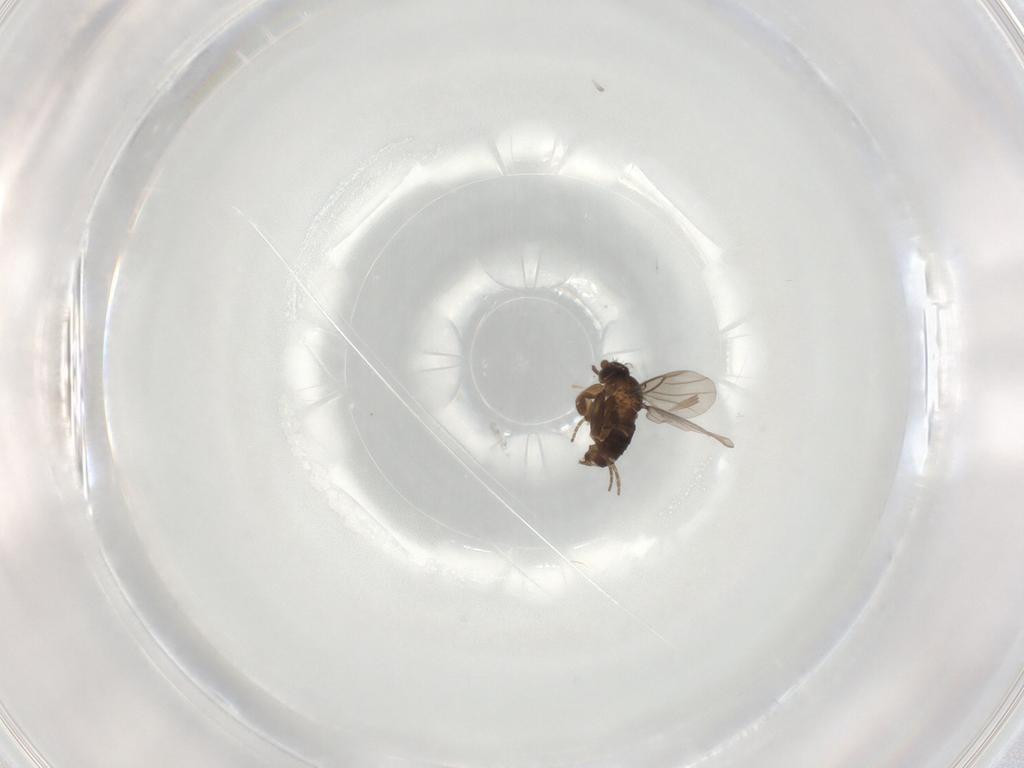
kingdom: Animalia
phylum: Arthropoda
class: Insecta
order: Diptera
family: Phoridae
